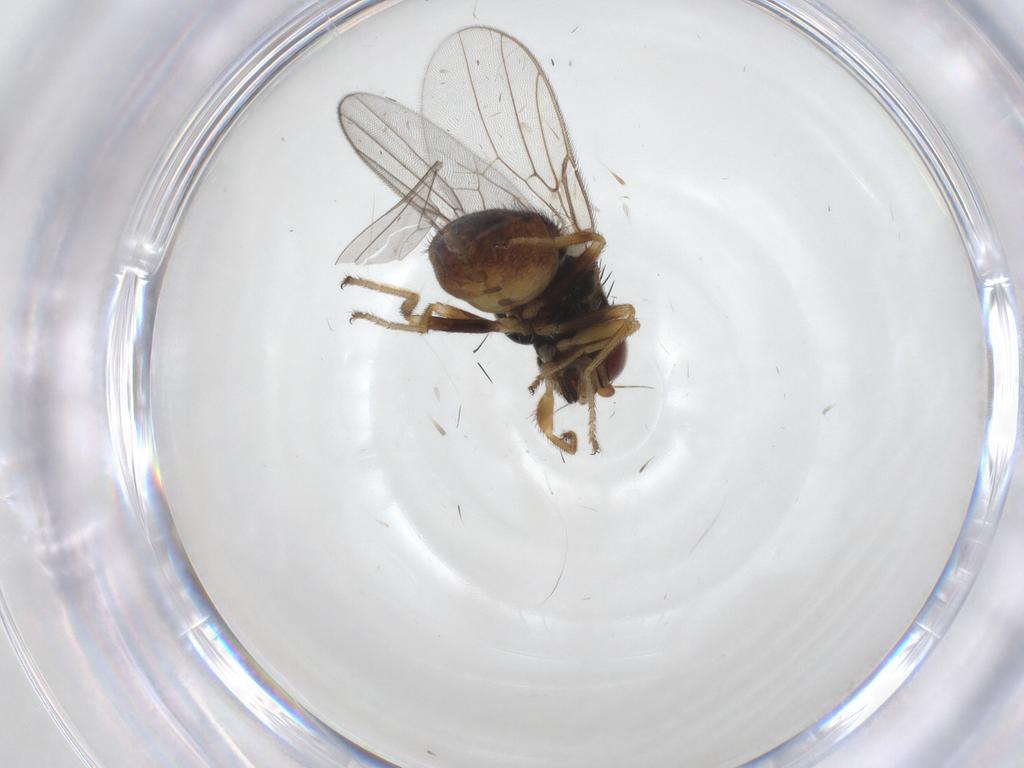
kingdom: Animalia
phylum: Arthropoda
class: Insecta
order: Diptera
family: Chloropidae
